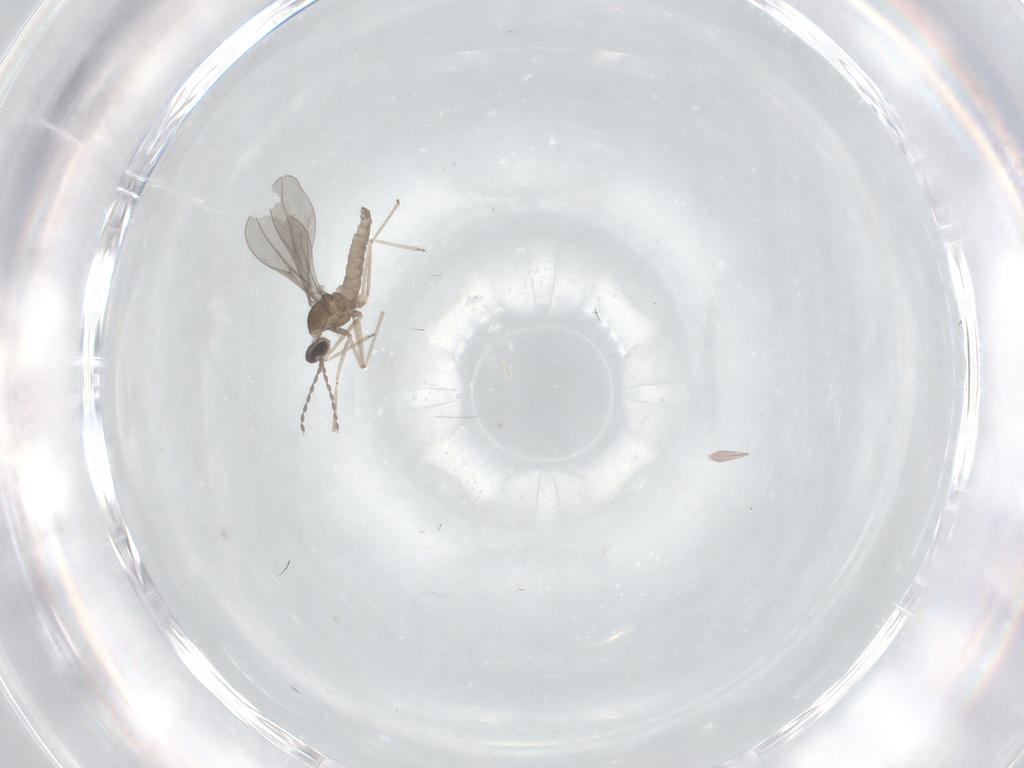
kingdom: Animalia
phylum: Arthropoda
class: Insecta
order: Diptera
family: Cecidomyiidae
